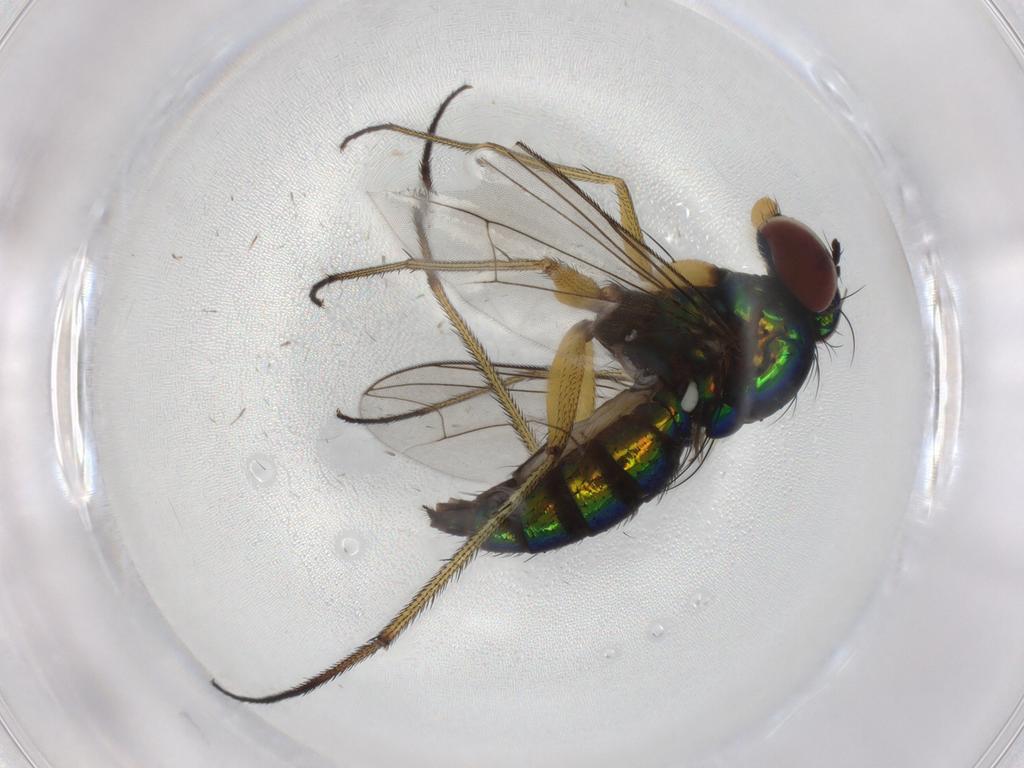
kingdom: Animalia
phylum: Arthropoda
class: Insecta
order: Diptera
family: Dolichopodidae
